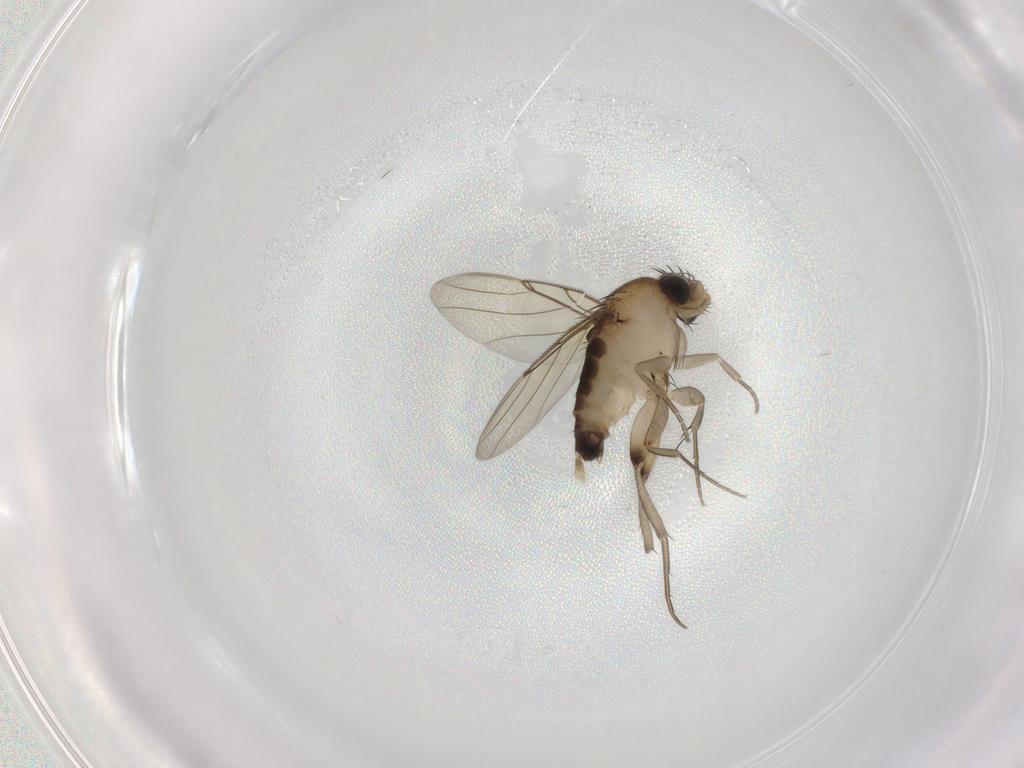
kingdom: Animalia
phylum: Arthropoda
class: Insecta
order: Diptera
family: Phoridae
